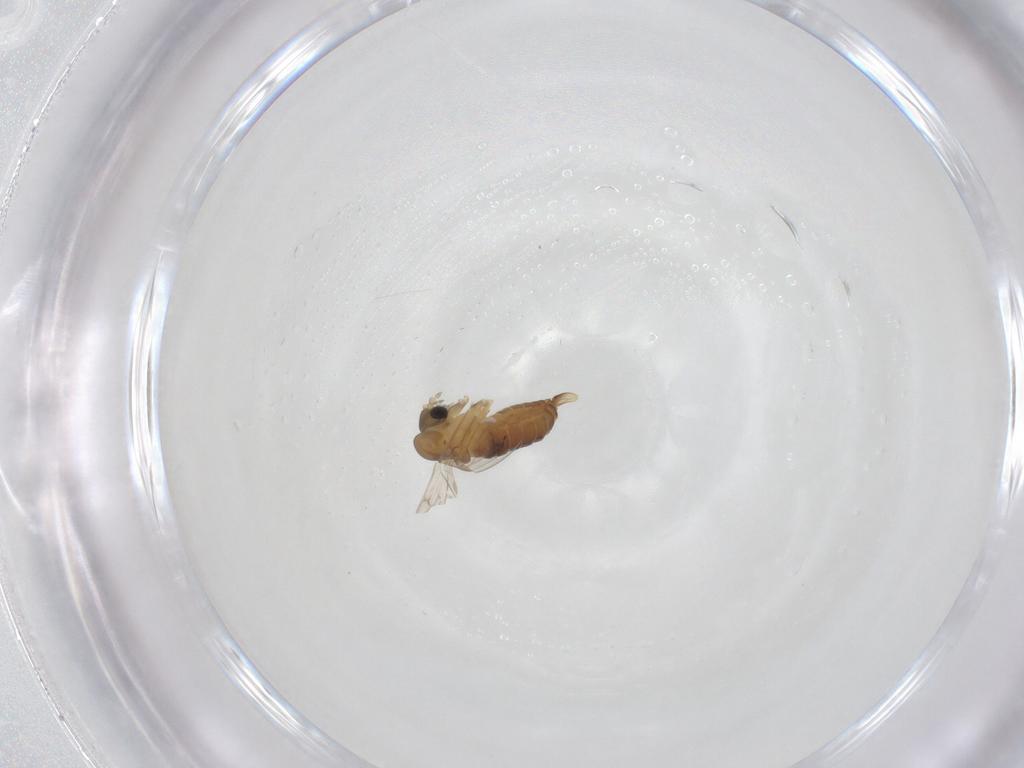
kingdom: Animalia
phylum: Arthropoda
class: Insecta
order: Diptera
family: Psychodidae
